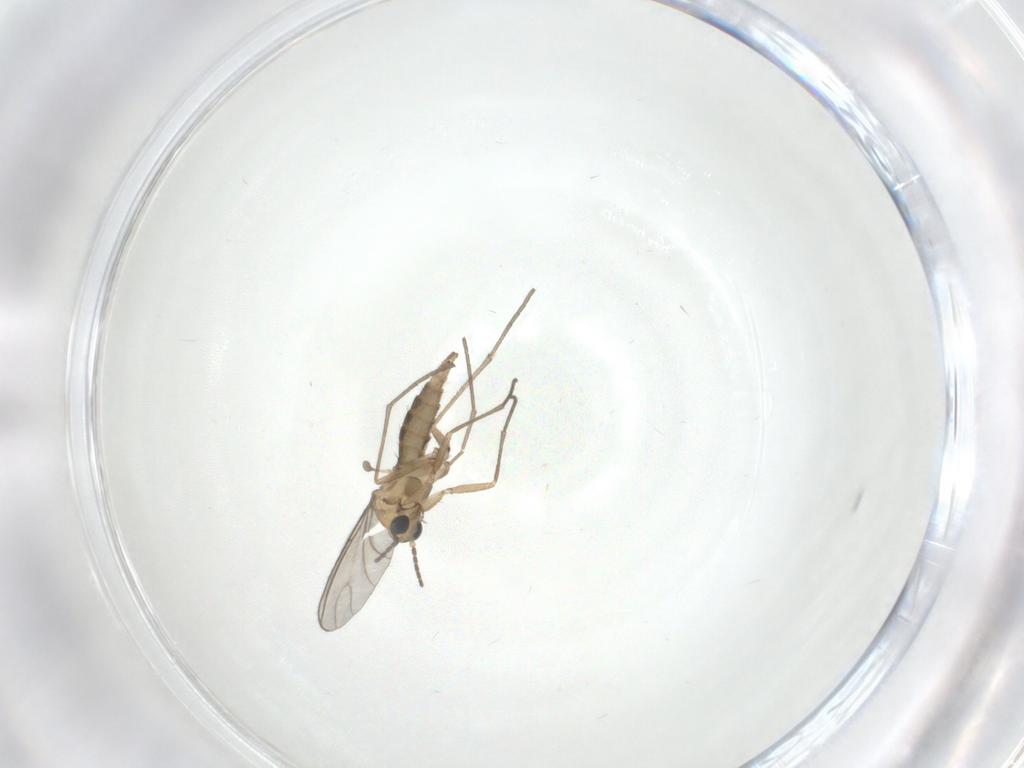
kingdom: Animalia
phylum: Arthropoda
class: Insecta
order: Diptera
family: Sciaridae
